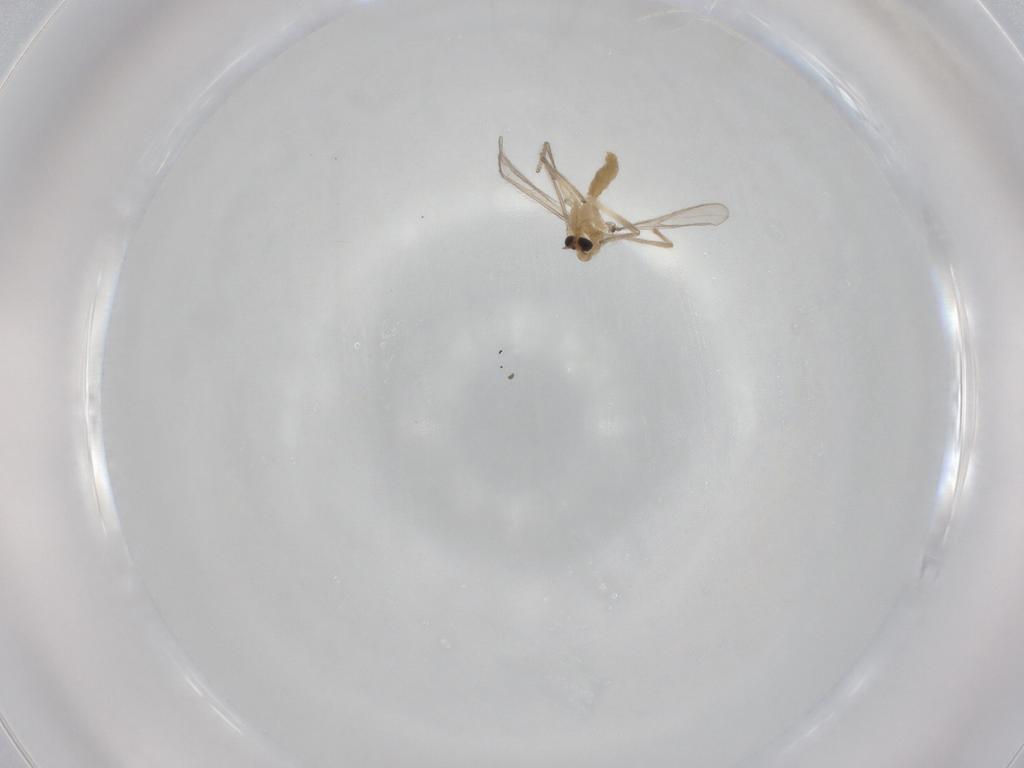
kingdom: Animalia
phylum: Arthropoda
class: Insecta
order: Diptera
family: Chironomidae
